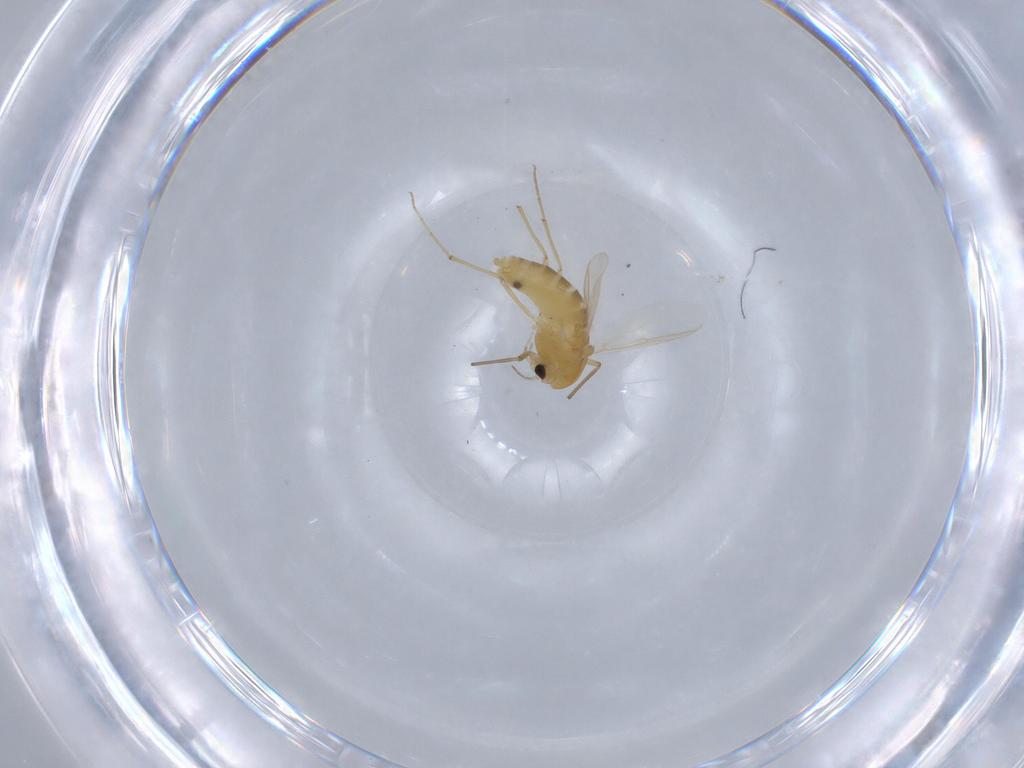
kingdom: Animalia
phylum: Arthropoda
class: Insecta
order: Diptera
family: Chironomidae
